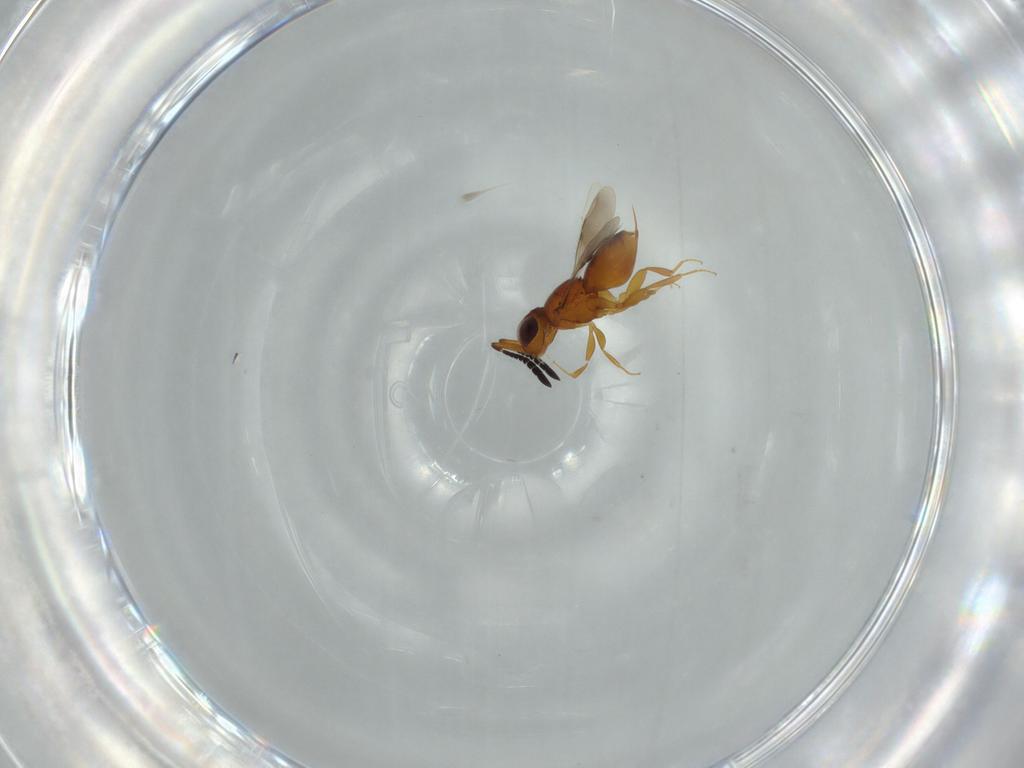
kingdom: Animalia
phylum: Arthropoda
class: Insecta
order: Hymenoptera
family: Ceraphronidae
